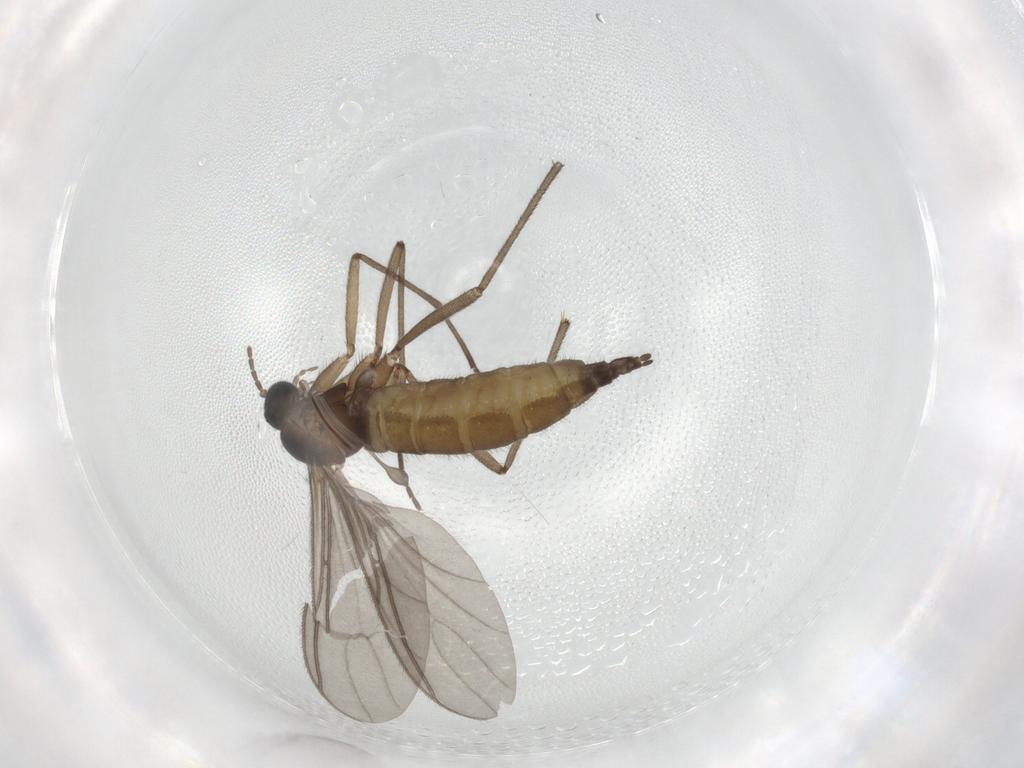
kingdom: Animalia
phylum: Arthropoda
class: Insecta
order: Diptera
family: Sciaridae
